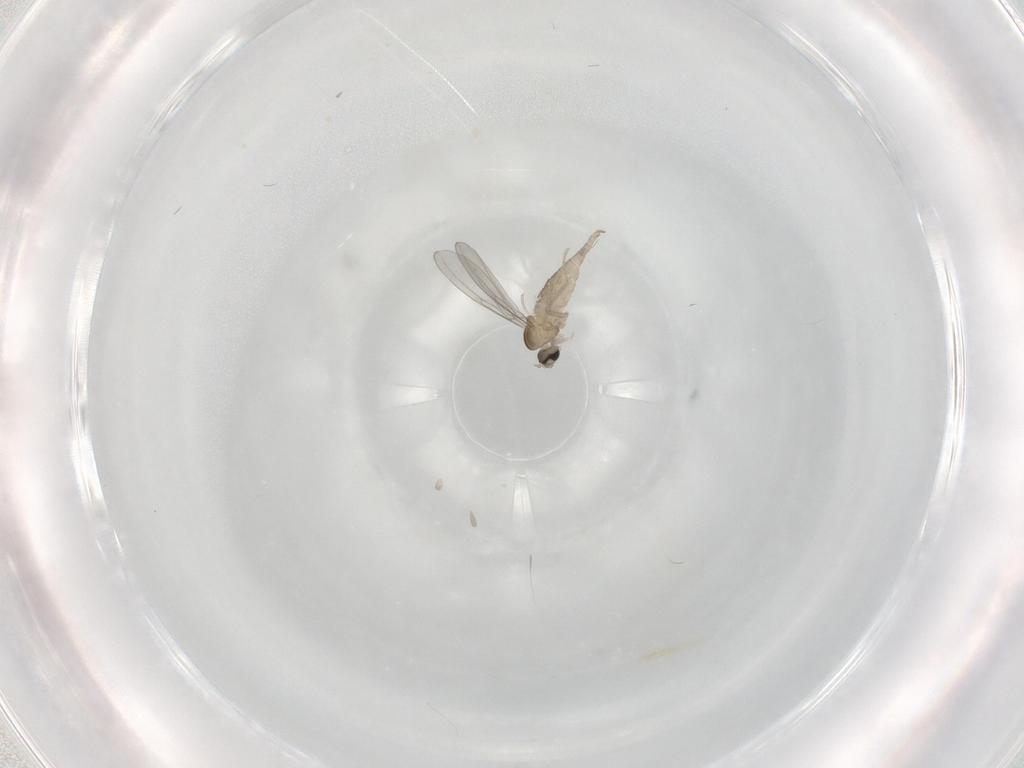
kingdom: Animalia
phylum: Arthropoda
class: Insecta
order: Diptera
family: Cecidomyiidae
